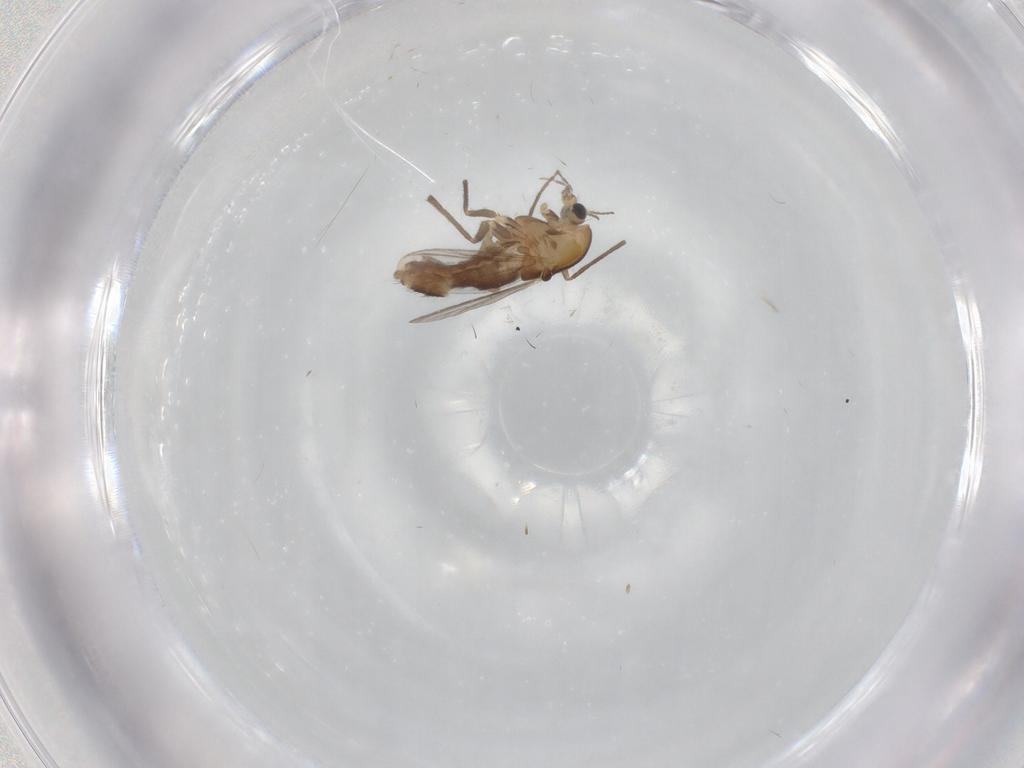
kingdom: Animalia
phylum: Arthropoda
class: Insecta
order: Diptera
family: Chironomidae
